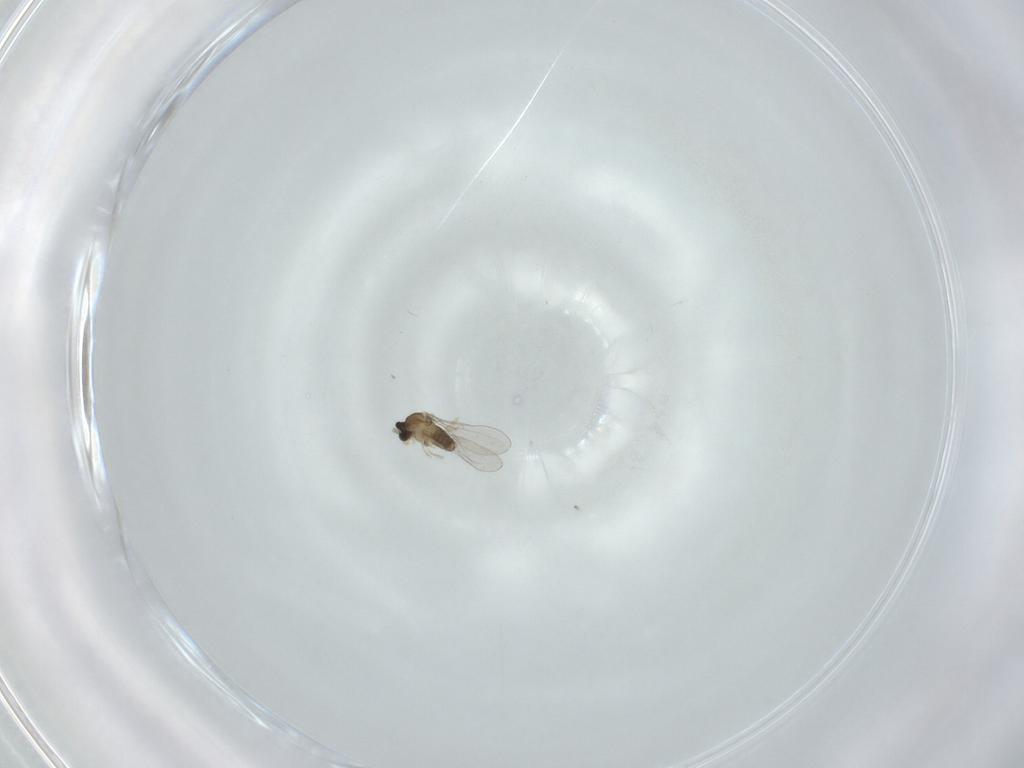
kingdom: Animalia
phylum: Arthropoda
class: Insecta
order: Diptera
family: Cecidomyiidae
